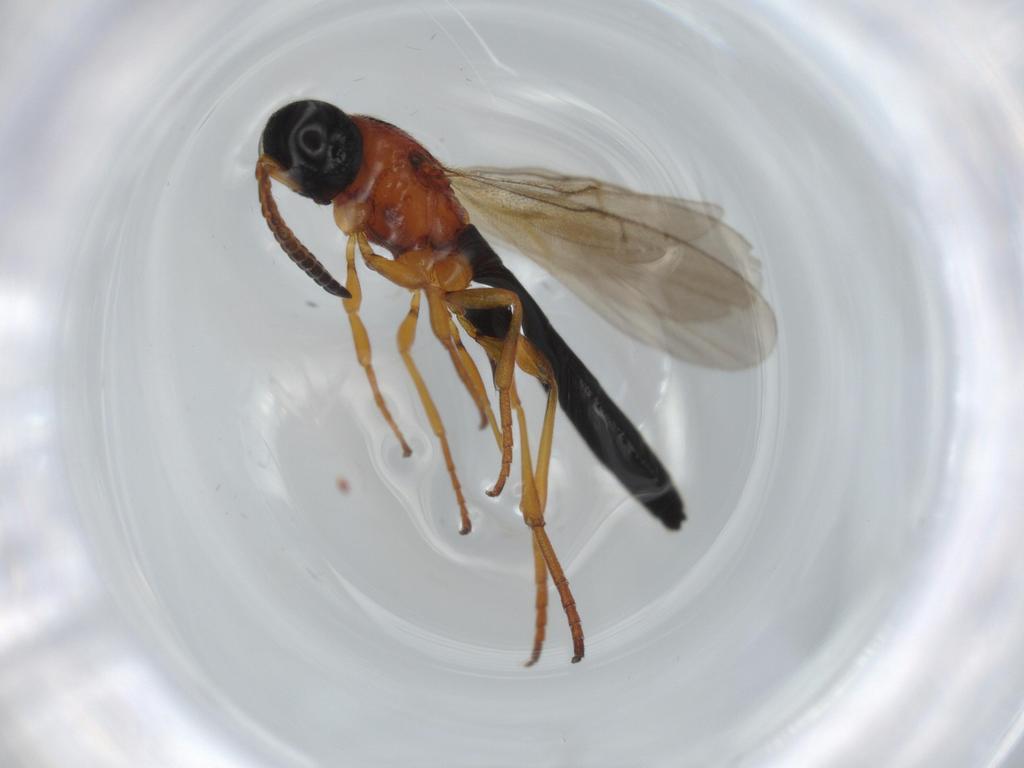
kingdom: Animalia
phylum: Arthropoda
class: Insecta
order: Hymenoptera
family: Scelionidae
